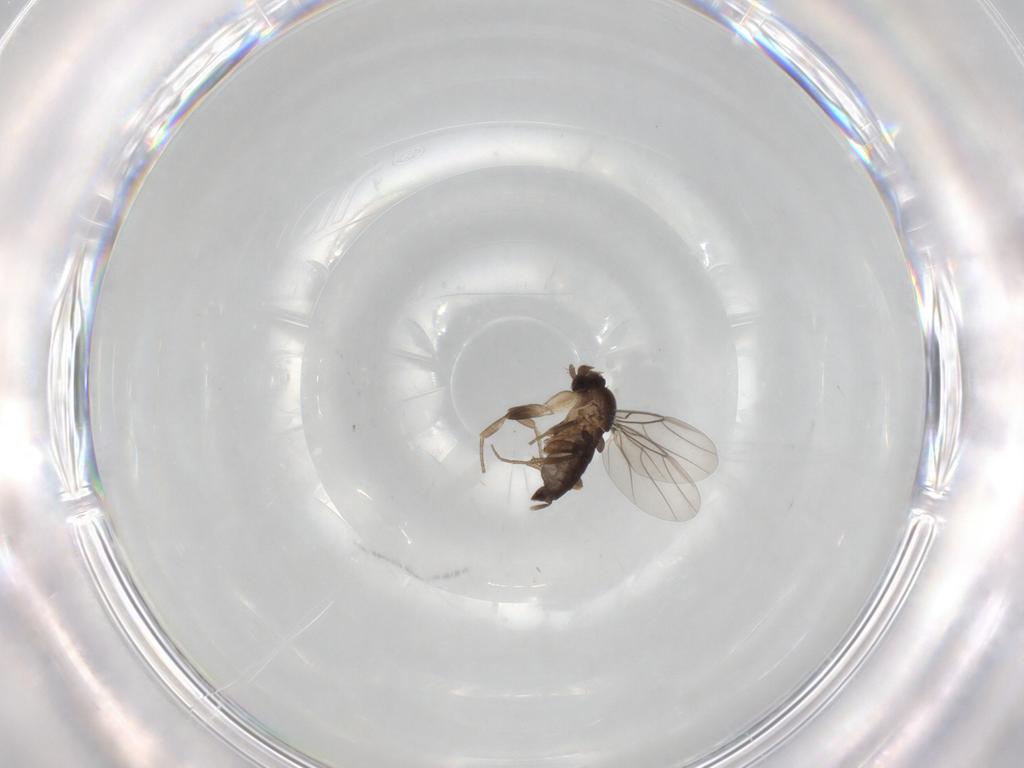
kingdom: Animalia
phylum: Arthropoda
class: Insecta
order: Diptera
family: Phoridae
